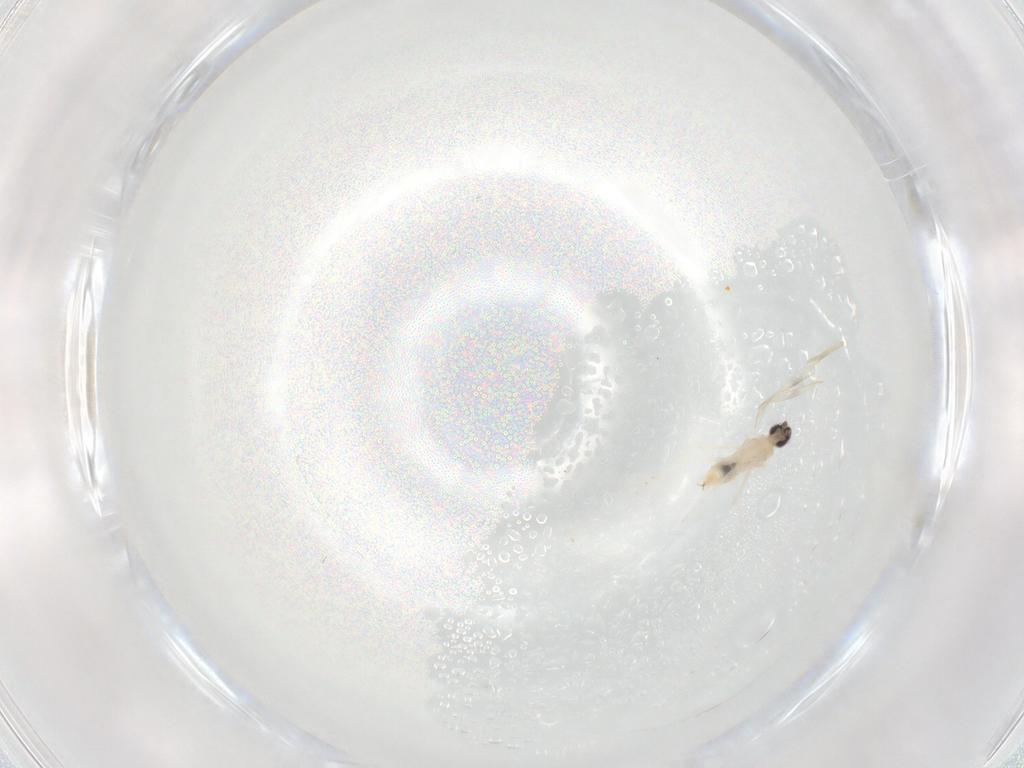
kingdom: Animalia
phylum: Arthropoda
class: Insecta
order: Diptera
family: Cecidomyiidae
